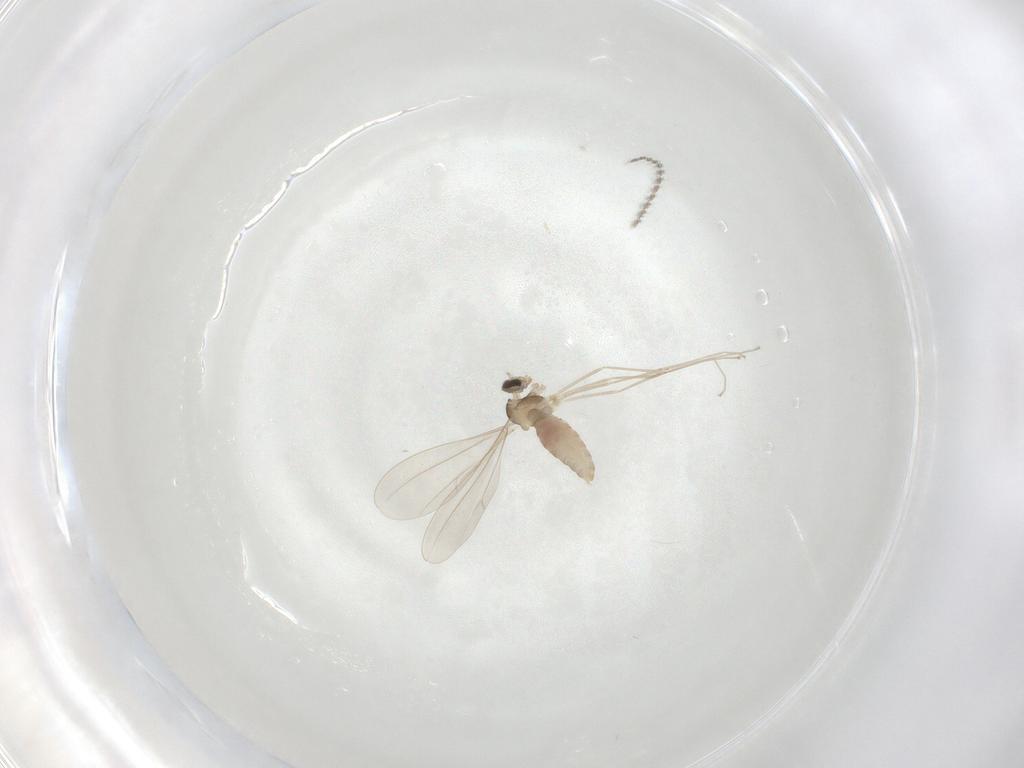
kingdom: Animalia
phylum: Arthropoda
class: Insecta
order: Diptera
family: Cecidomyiidae
